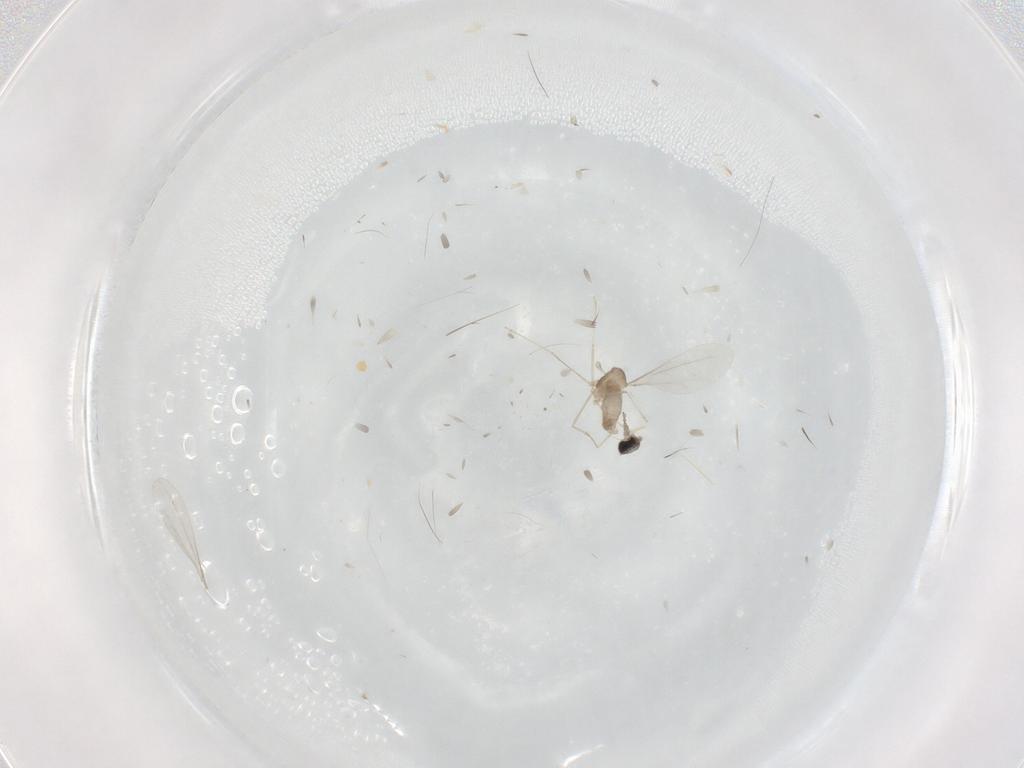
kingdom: Animalia
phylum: Arthropoda
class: Insecta
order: Diptera
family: Cecidomyiidae
